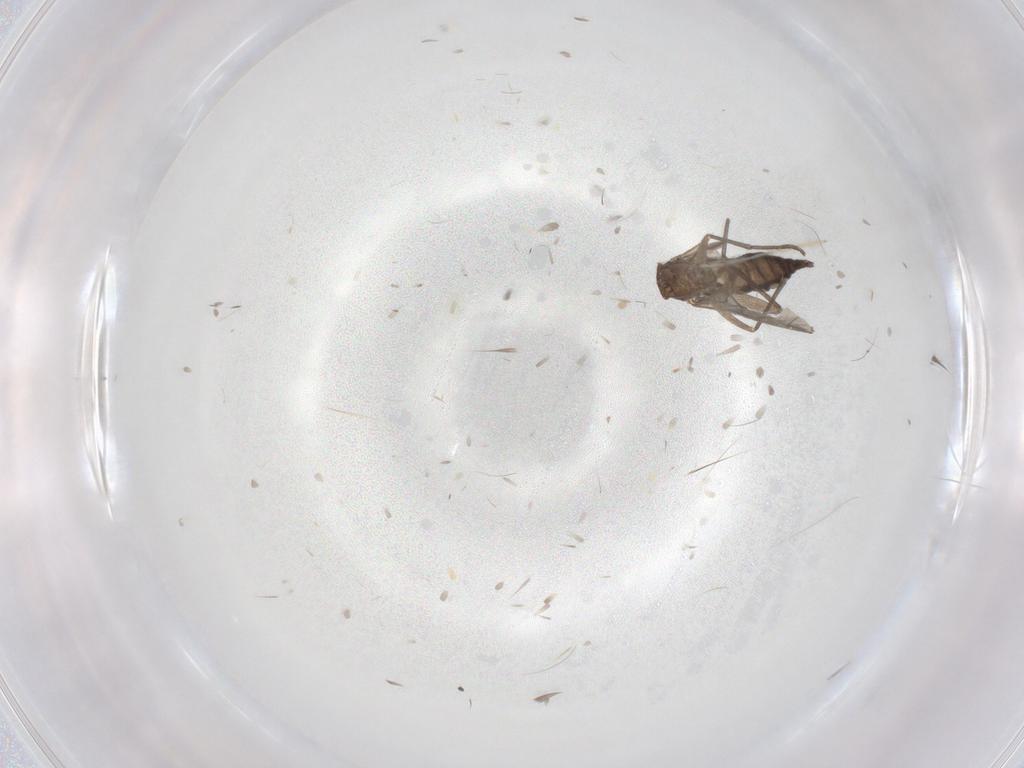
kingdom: Animalia
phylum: Arthropoda
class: Insecta
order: Diptera
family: Sciaridae
